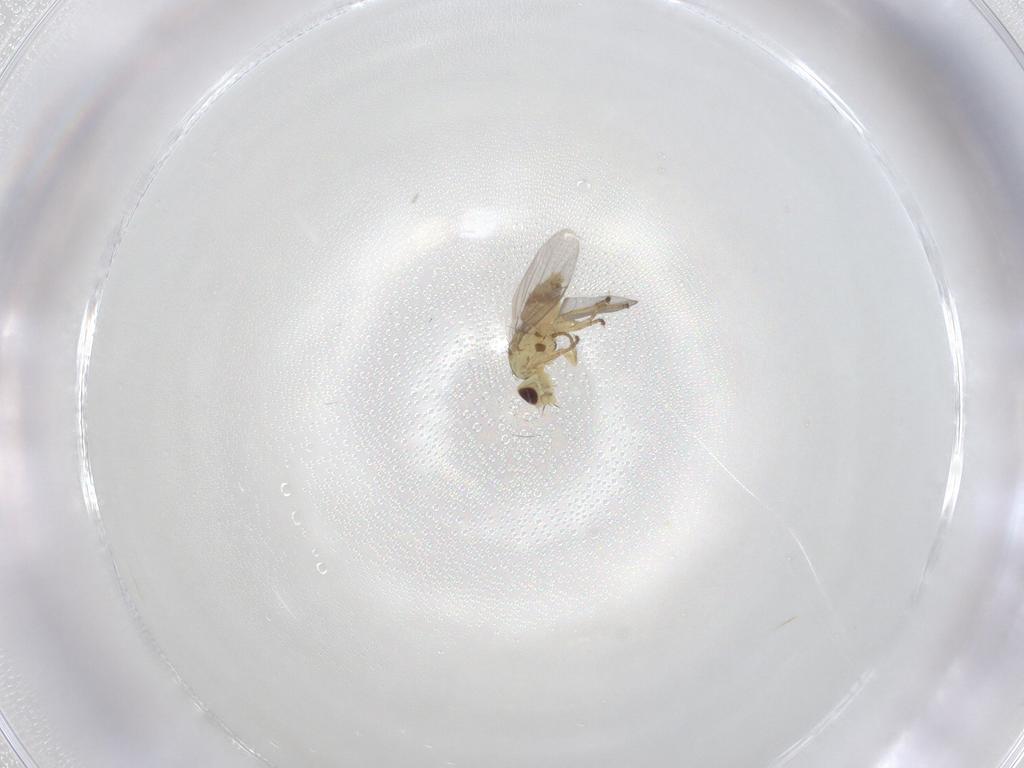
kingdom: Animalia
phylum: Arthropoda
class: Insecta
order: Diptera
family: Agromyzidae
